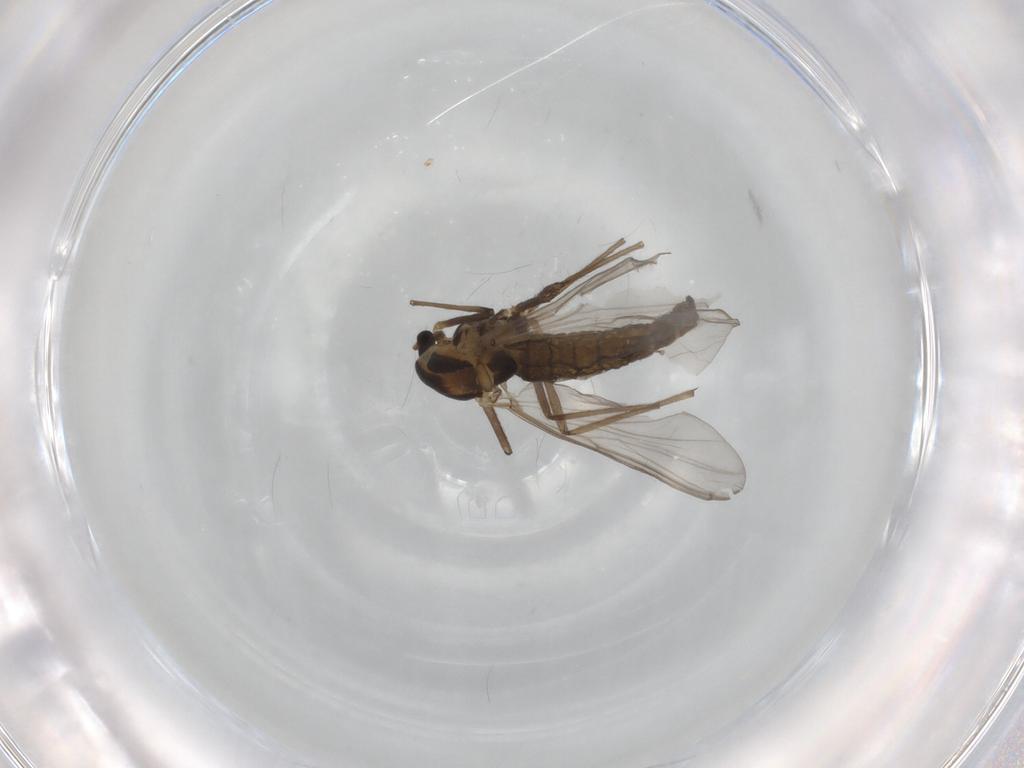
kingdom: Animalia
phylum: Arthropoda
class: Insecta
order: Diptera
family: Chironomidae
